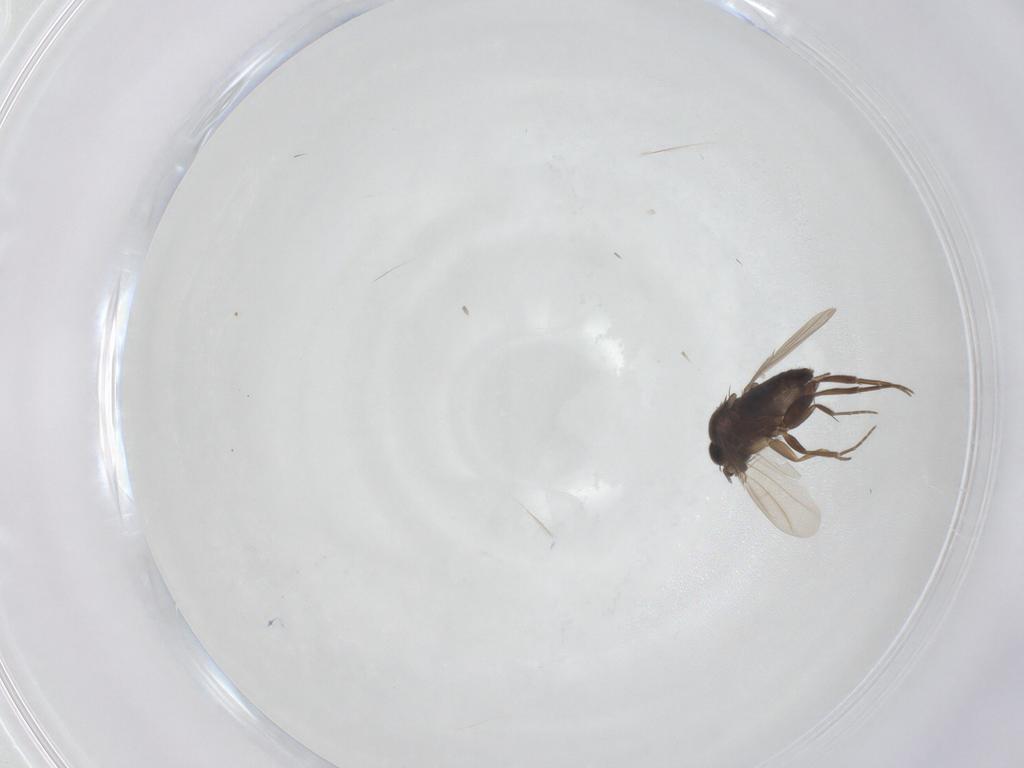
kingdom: Animalia
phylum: Arthropoda
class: Insecta
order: Diptera
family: Phoridae
